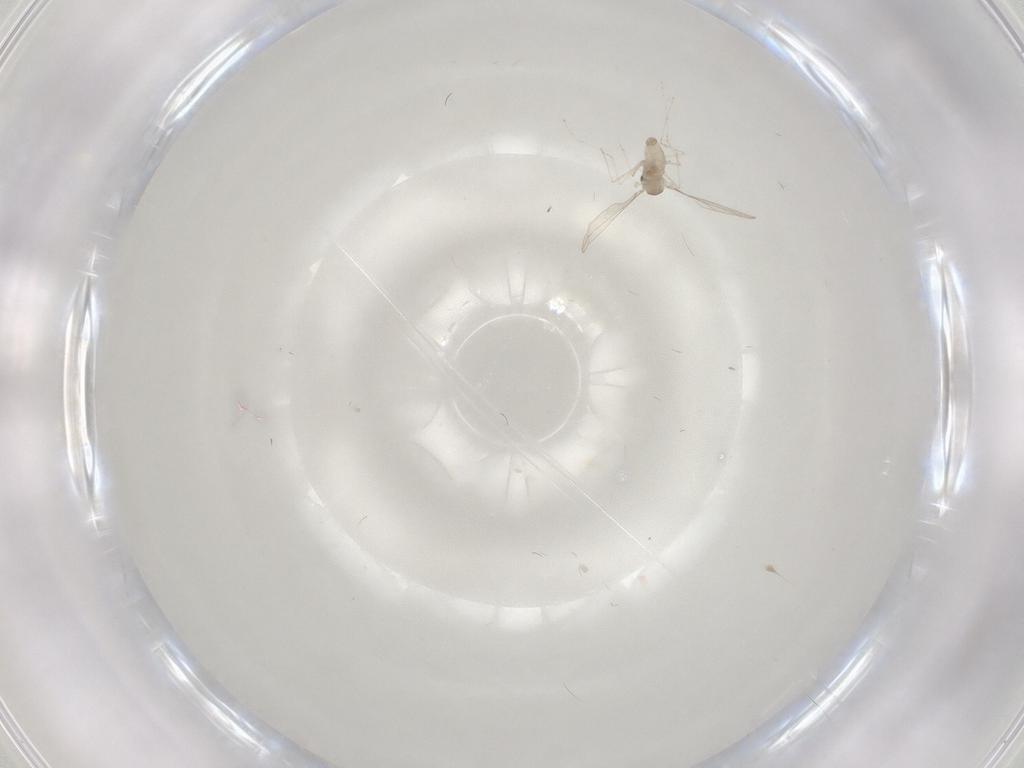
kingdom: Animalia
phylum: Arthropoda
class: Insecta
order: Diptera
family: Cecidomyiidae
